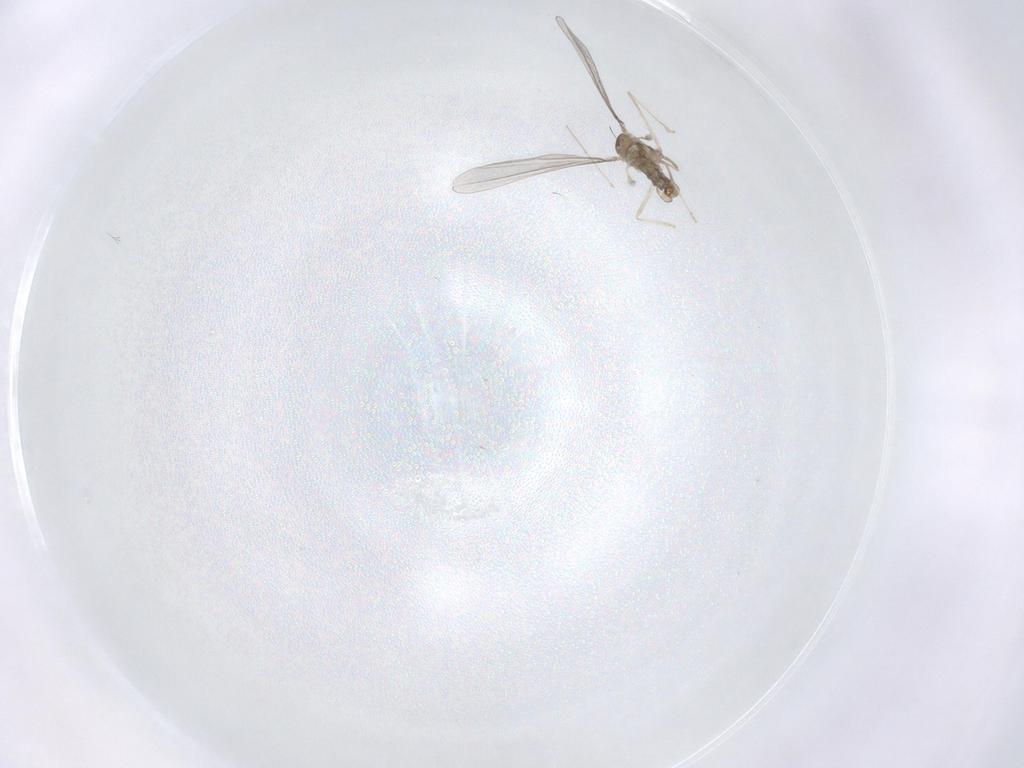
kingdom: Animalia
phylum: Arthropoda
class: Insecta
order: Diptera
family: Cecidomyiidae
